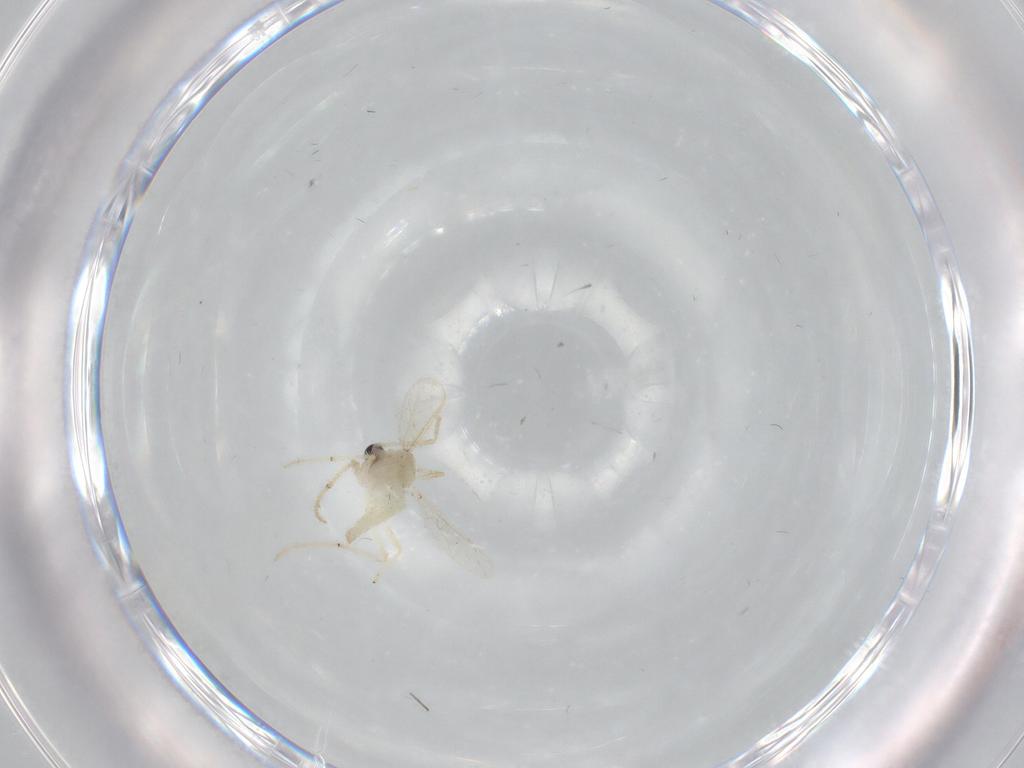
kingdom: Animalia
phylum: Arthropoda
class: Insecta
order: Diptera
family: Chironomidae
